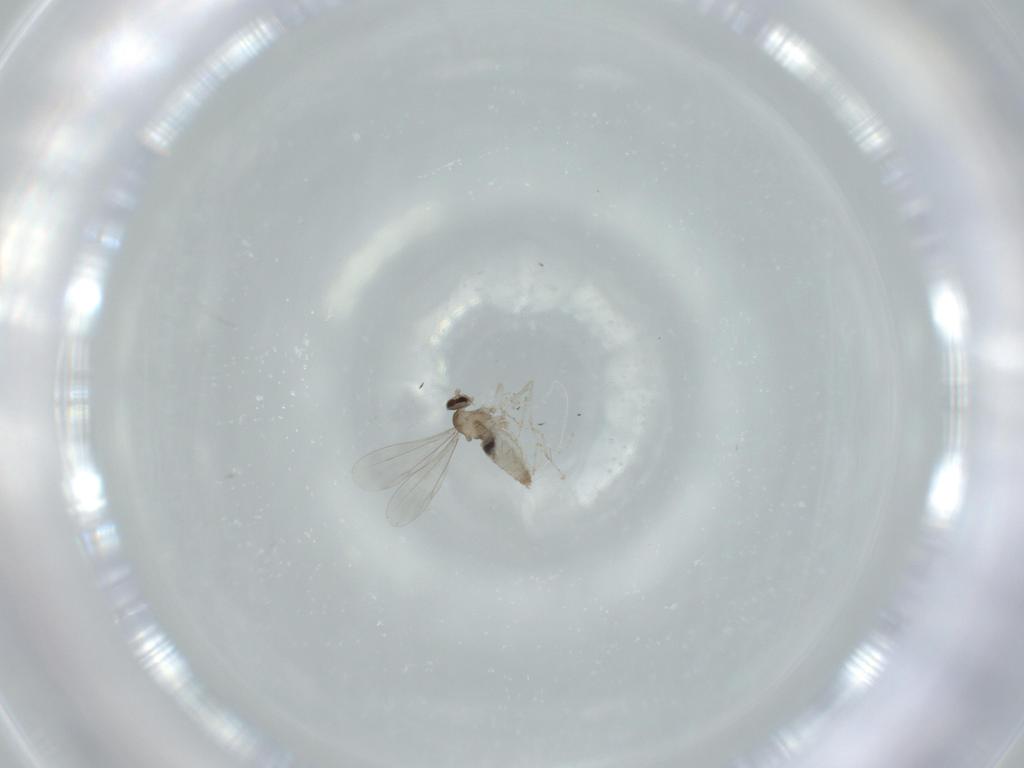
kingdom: Animalia
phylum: Arthropoda
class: Insecta
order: Diptera
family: Cecidomyiidae
